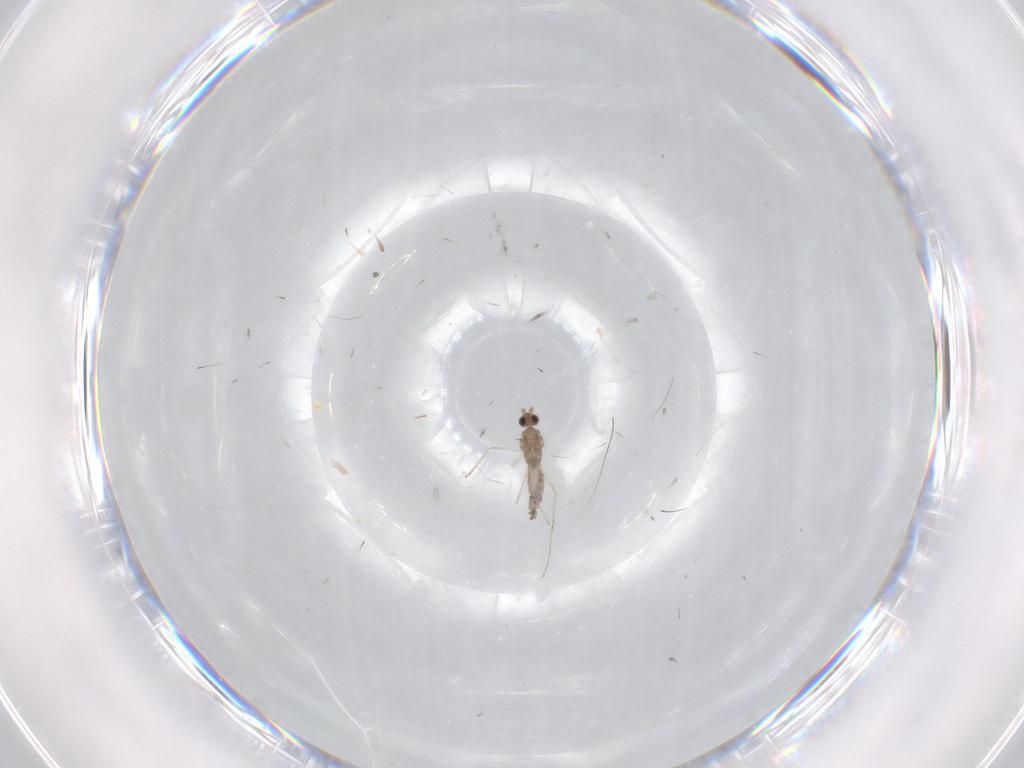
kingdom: Animalia
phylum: Arthropoda
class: Insecta
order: Diptera
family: Cecidomyiidae
